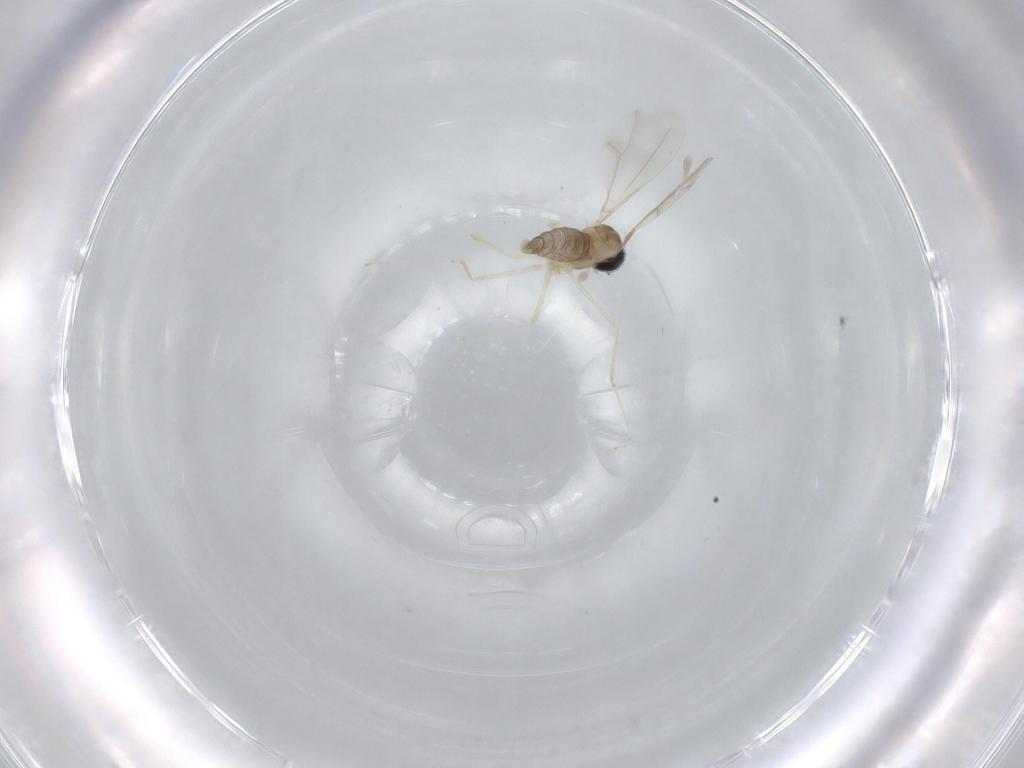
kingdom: Animalia
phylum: Arthropoda
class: Insecta
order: Diptera
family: Cecidomyiidae
